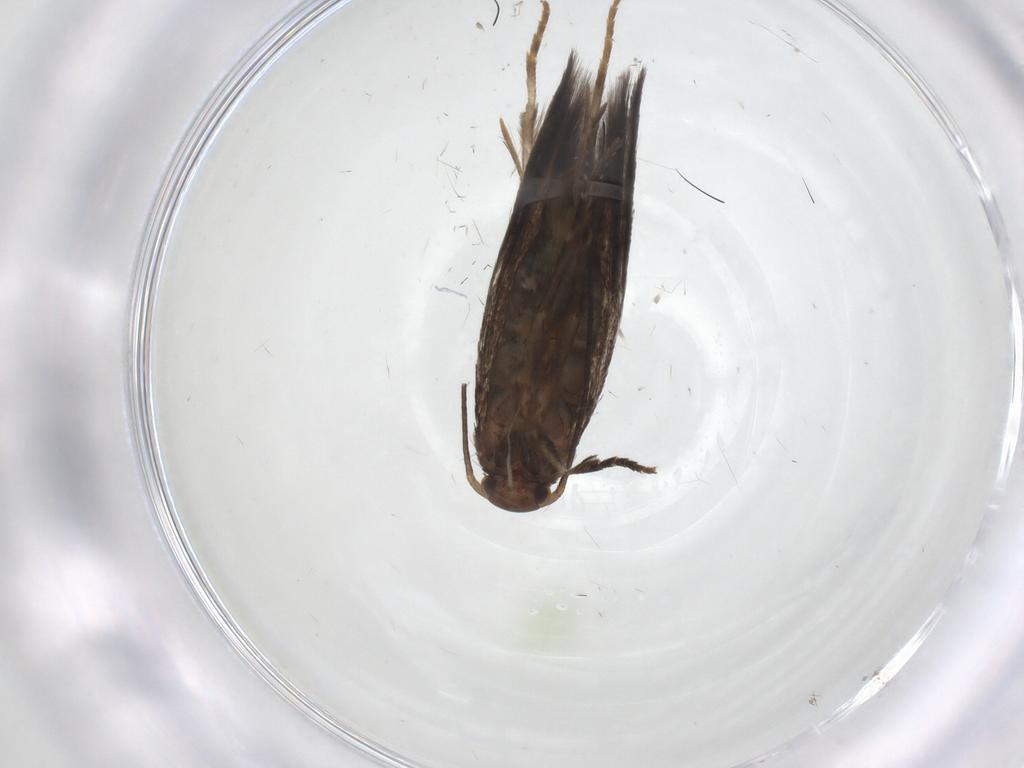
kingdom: Animalia
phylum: Arthropoda
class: Insecta
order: Lepidoptera
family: Elachistidae
